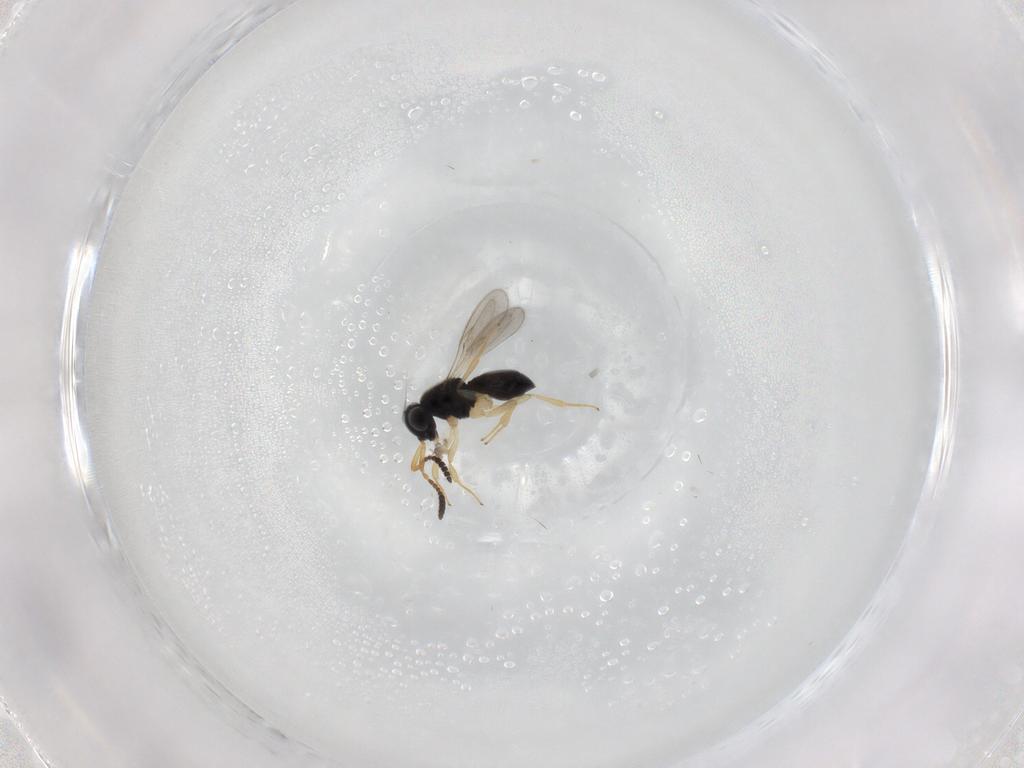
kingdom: Animalia
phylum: Arthropoda
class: Insecta
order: Hymenoptera
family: Scelionidae
